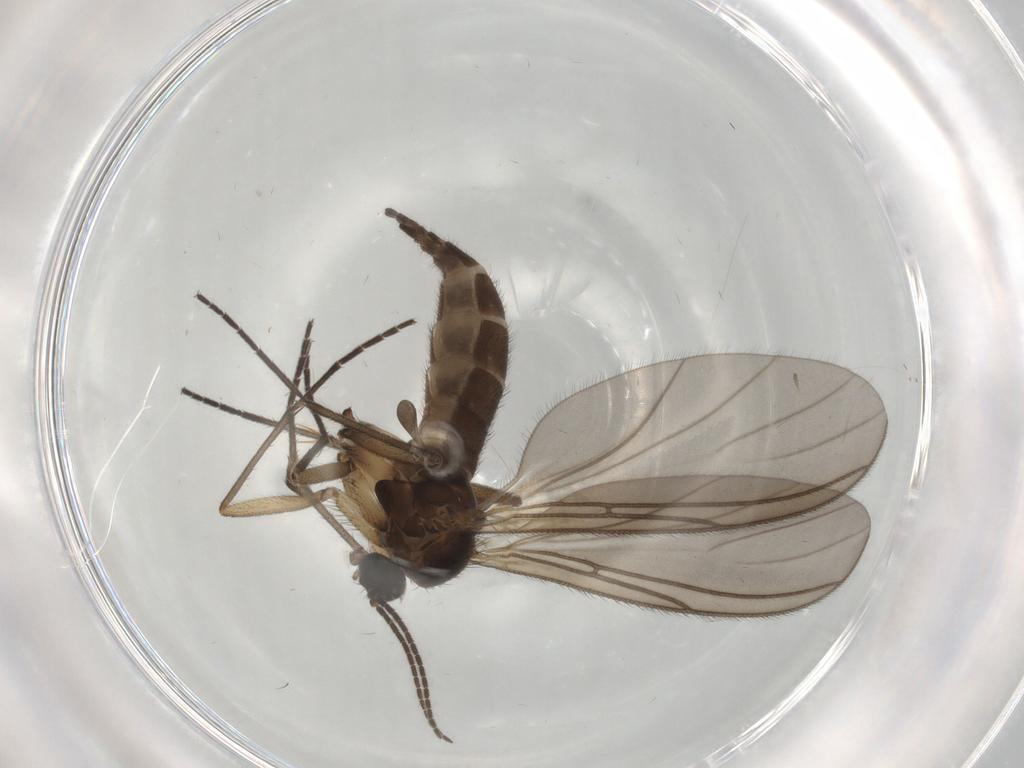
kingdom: Animalia
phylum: Arthropoda
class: Insecta
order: Diptera
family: Sciaridae
